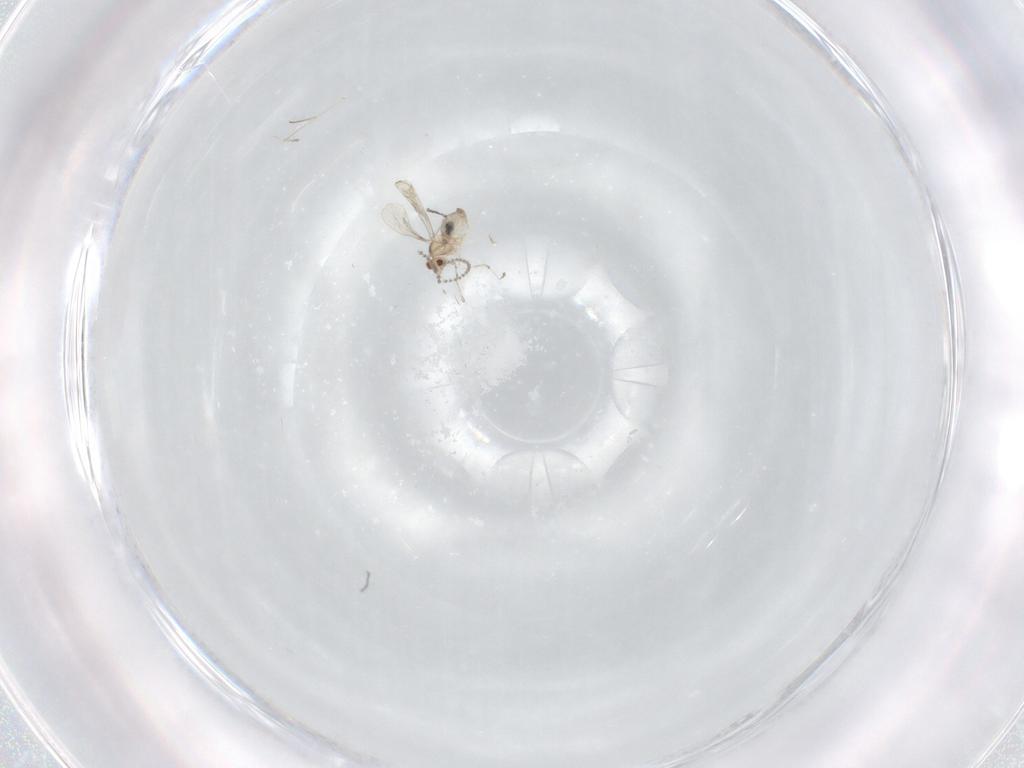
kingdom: Animalia
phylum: Arthropoda
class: Insecta
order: Diptera
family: Cecidomyiidae
